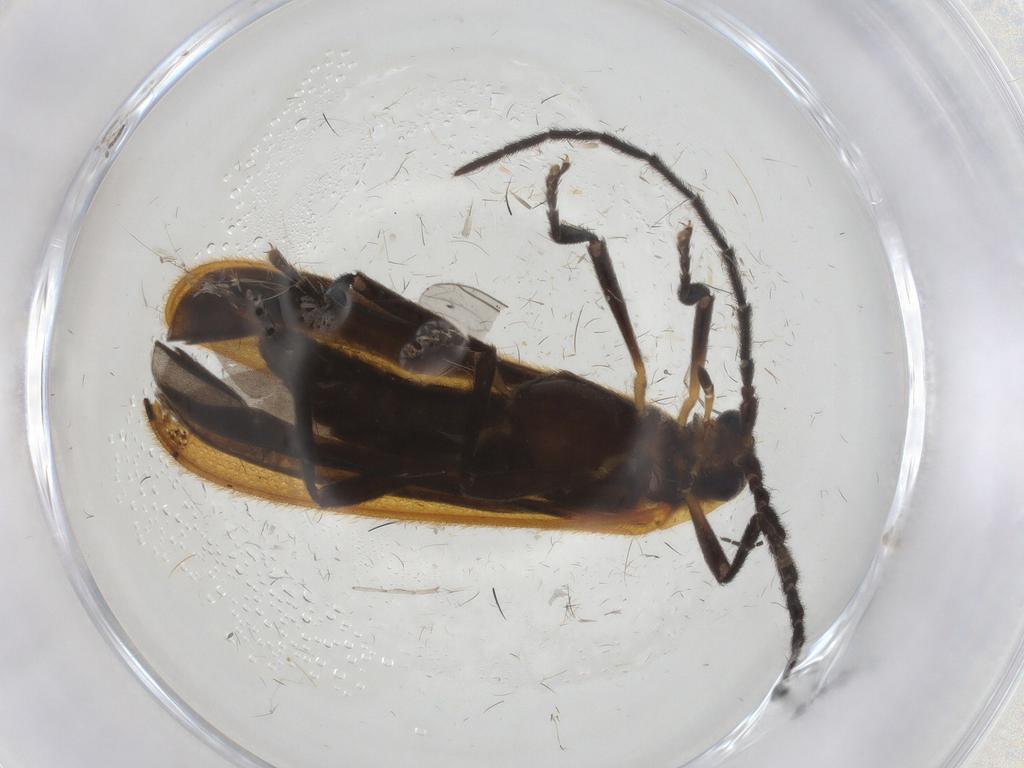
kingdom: Animalia
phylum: Arthropoda
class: Insecta
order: Coleoptera
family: Lycidae
